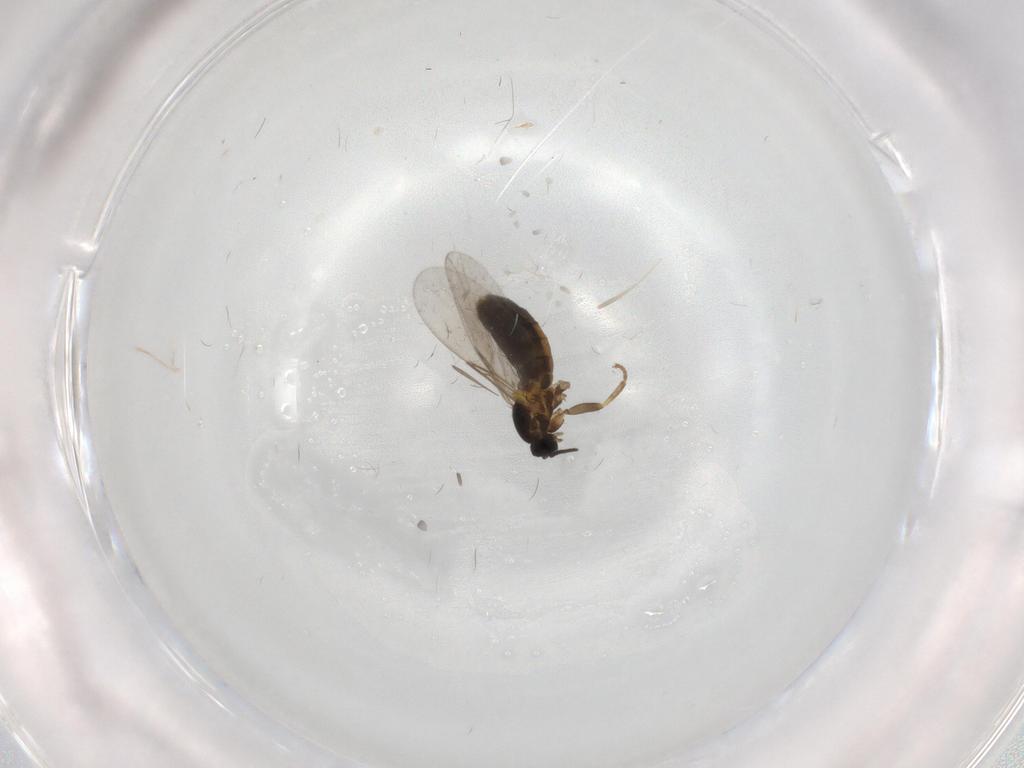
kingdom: Animalia
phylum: Arthropoda
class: Insecta
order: Diptera
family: Scatopsidae
